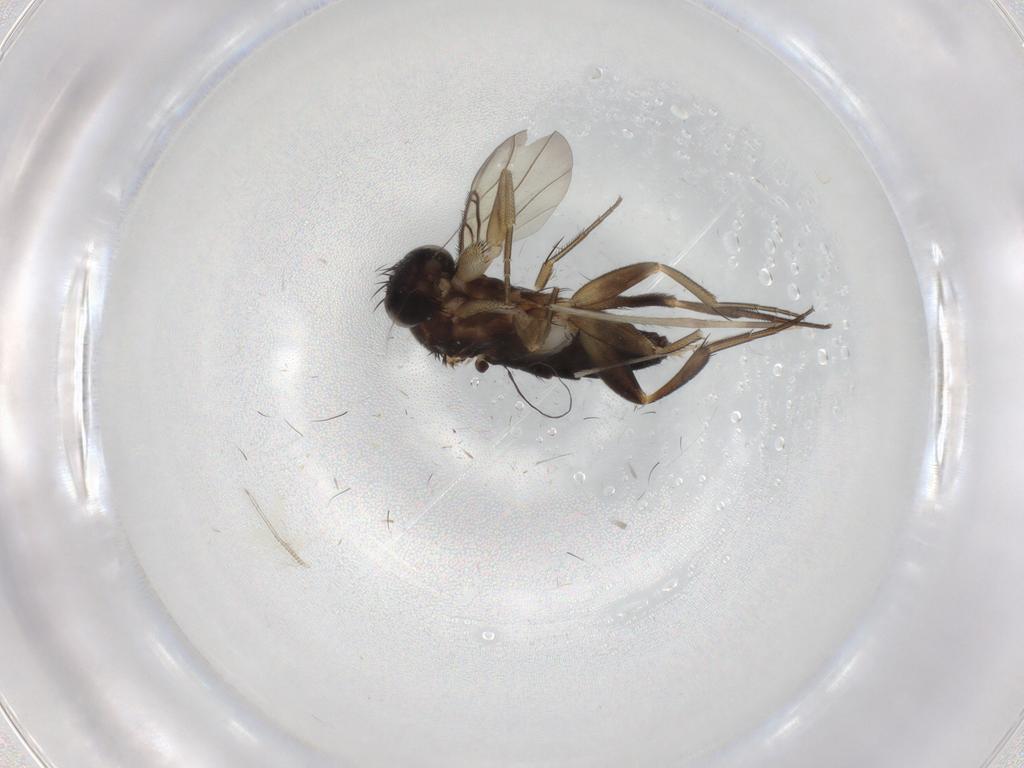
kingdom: Animalia
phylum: Arthropoda
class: Insecta
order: Diptera
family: Phoridae
